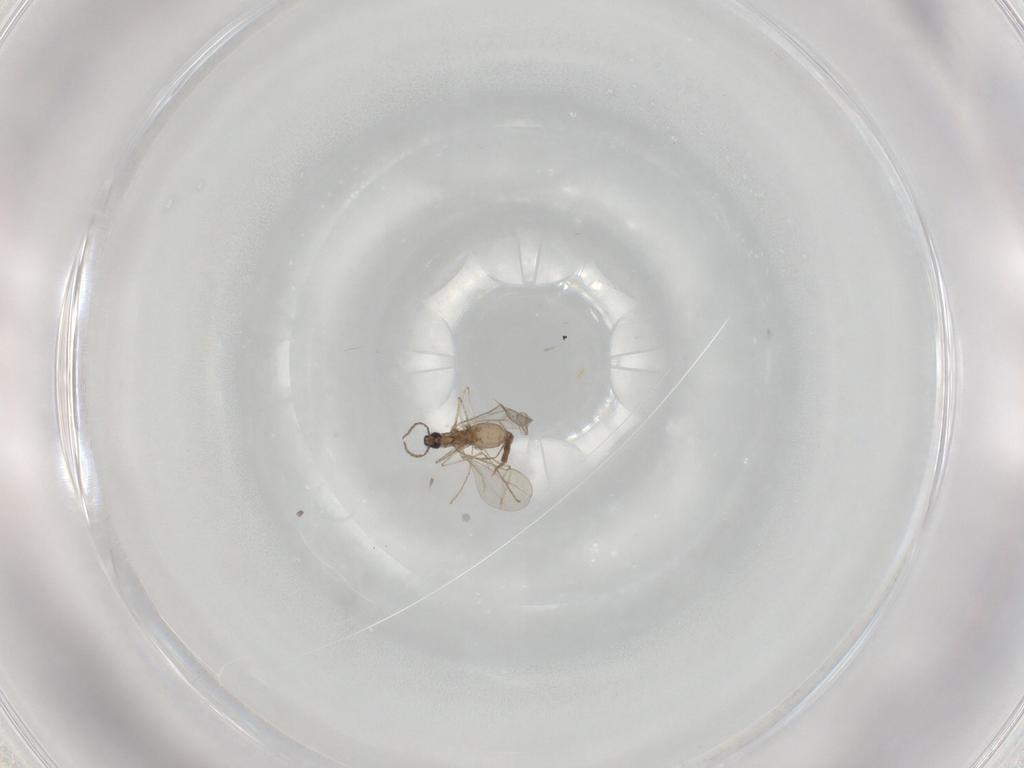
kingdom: Animalia
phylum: Arthropoda
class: Insecta
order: Diptera
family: Cecidomyiidae
